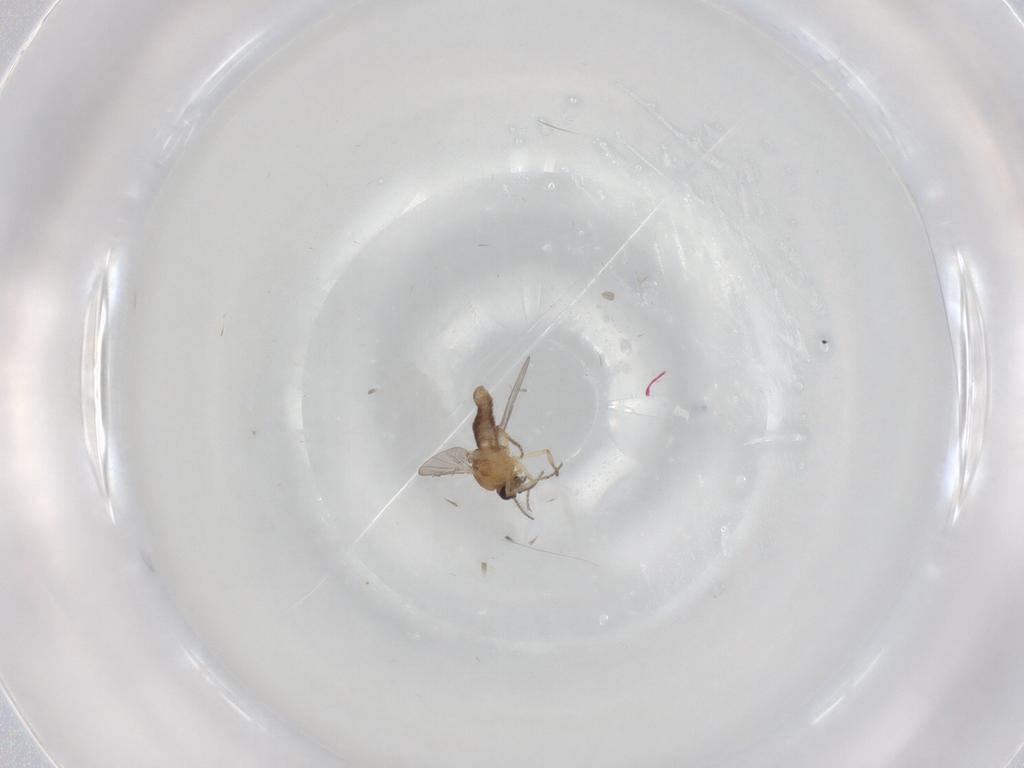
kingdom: Animalia
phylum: Arthropoda
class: Insecta
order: Diptera
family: Ceratopogonidae
